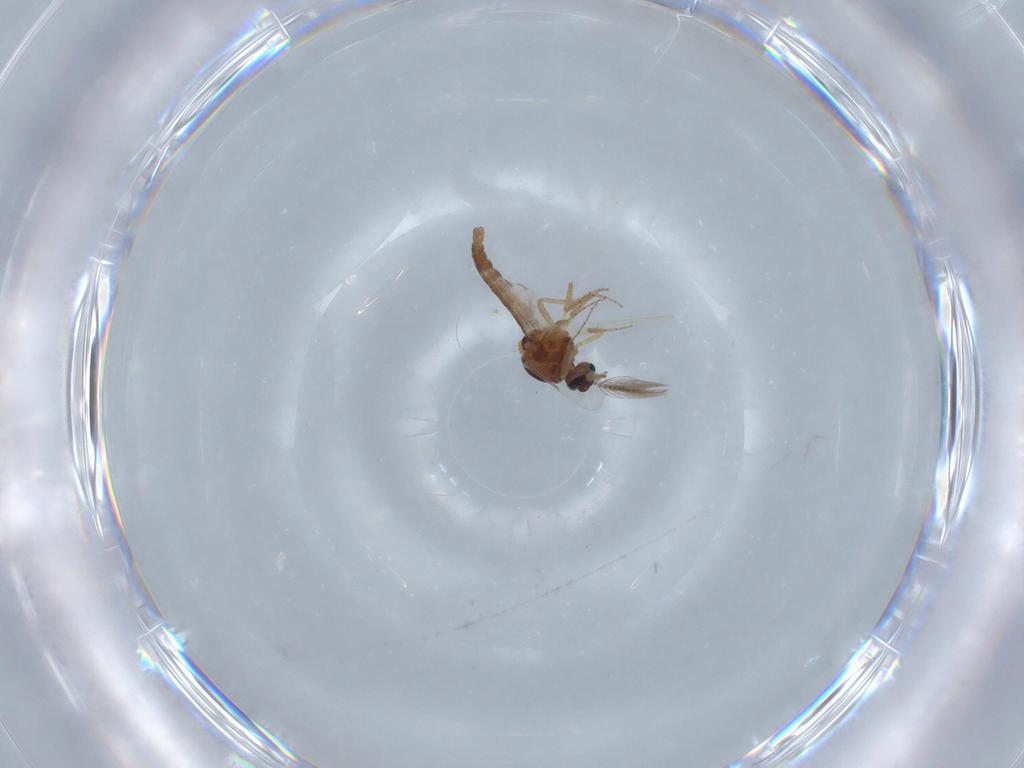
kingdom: Animalia
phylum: Arthropoda
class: Insecta
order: Diptera
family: Ceratopogonidae
